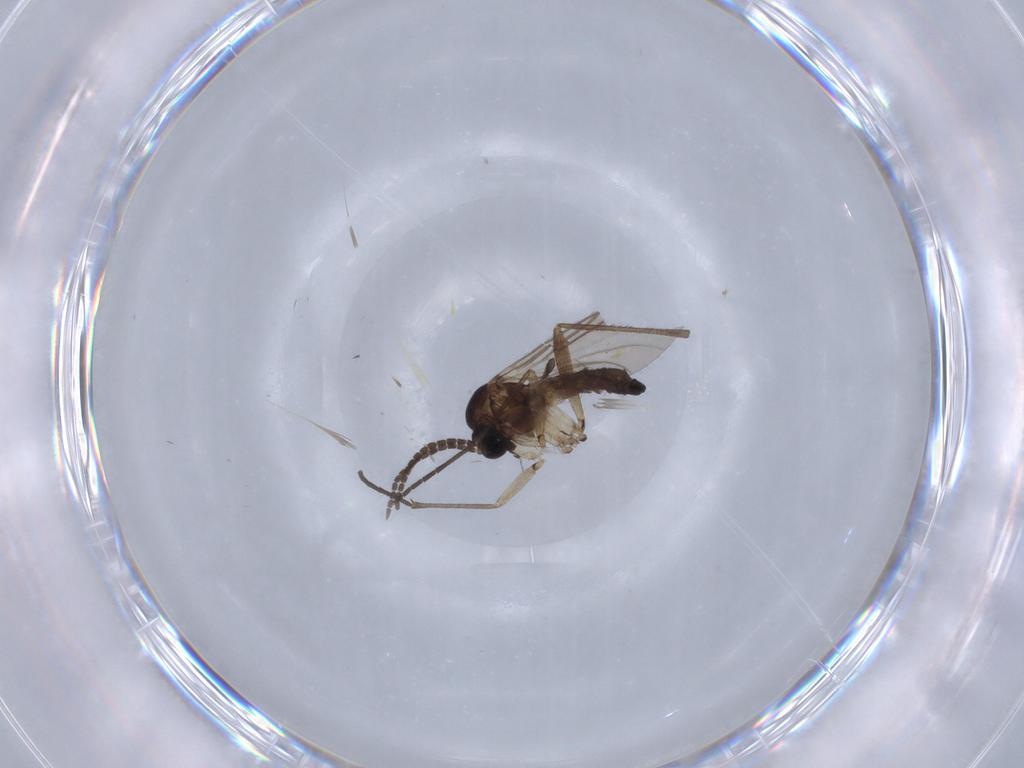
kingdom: Animalia
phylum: Arthropoda
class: Insecta
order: Diptera
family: Sciaridae
